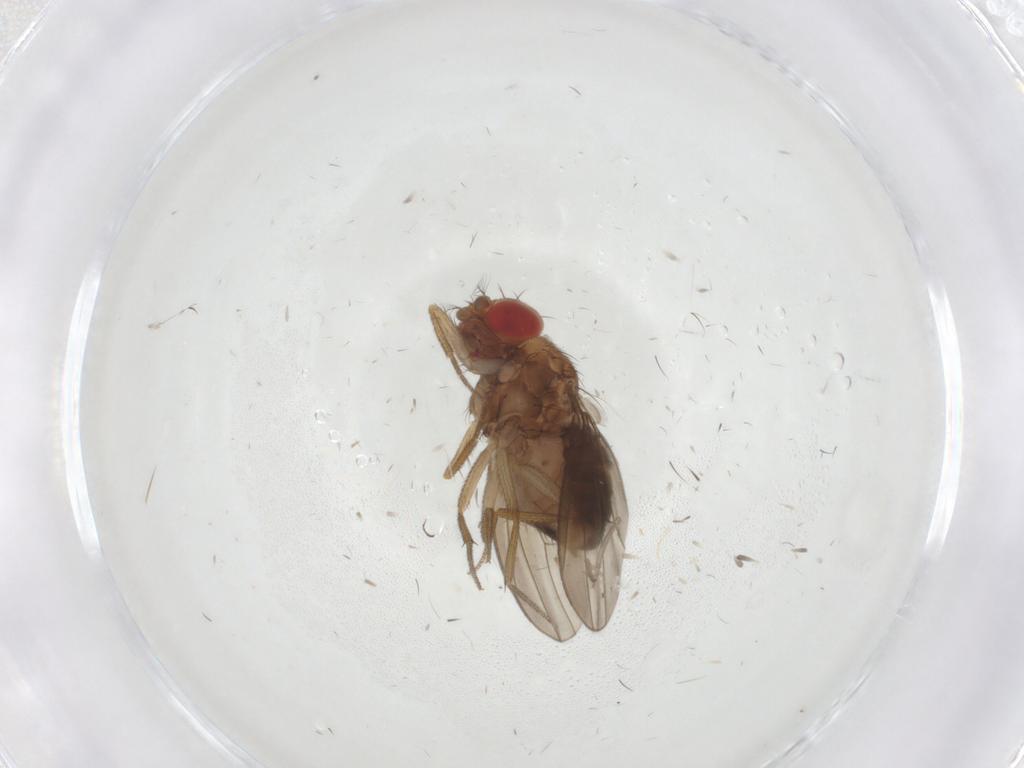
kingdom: Animalia
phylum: Arthropoda
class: Insecta
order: Diptera
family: Drosophilidae
